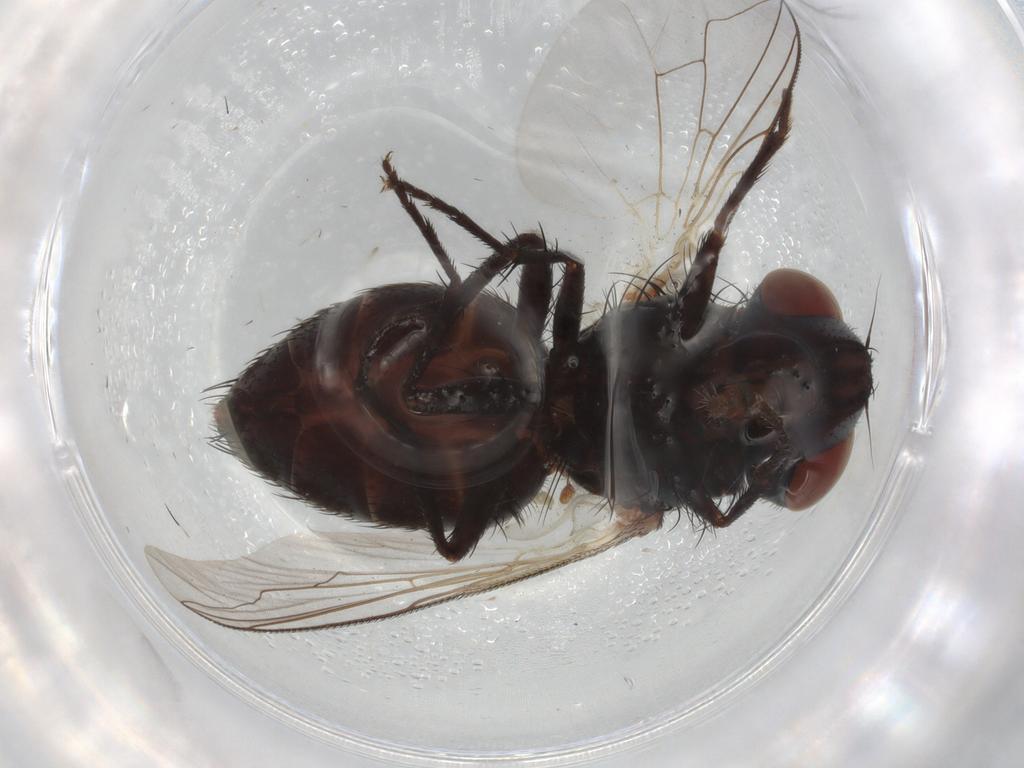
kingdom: Animalia
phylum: Arthropoda
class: Insecta
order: Diptera
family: Sarcophagidae
